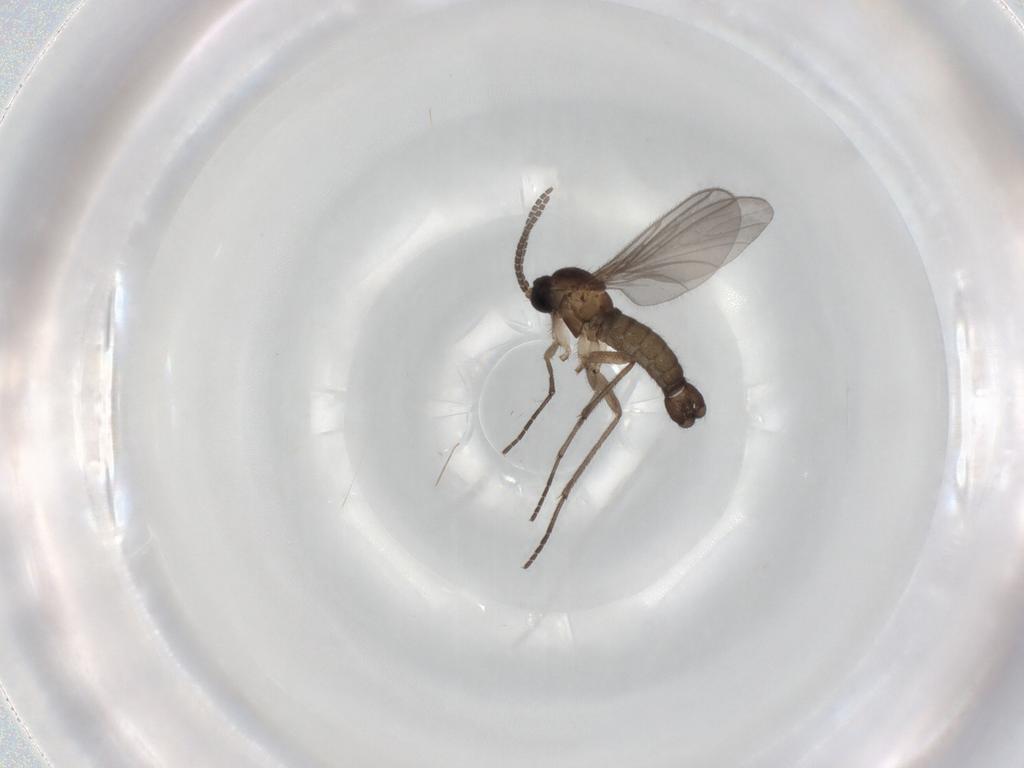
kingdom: Animalia
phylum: Arthropoda
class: Insecta
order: Diptera
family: Sciaridae
